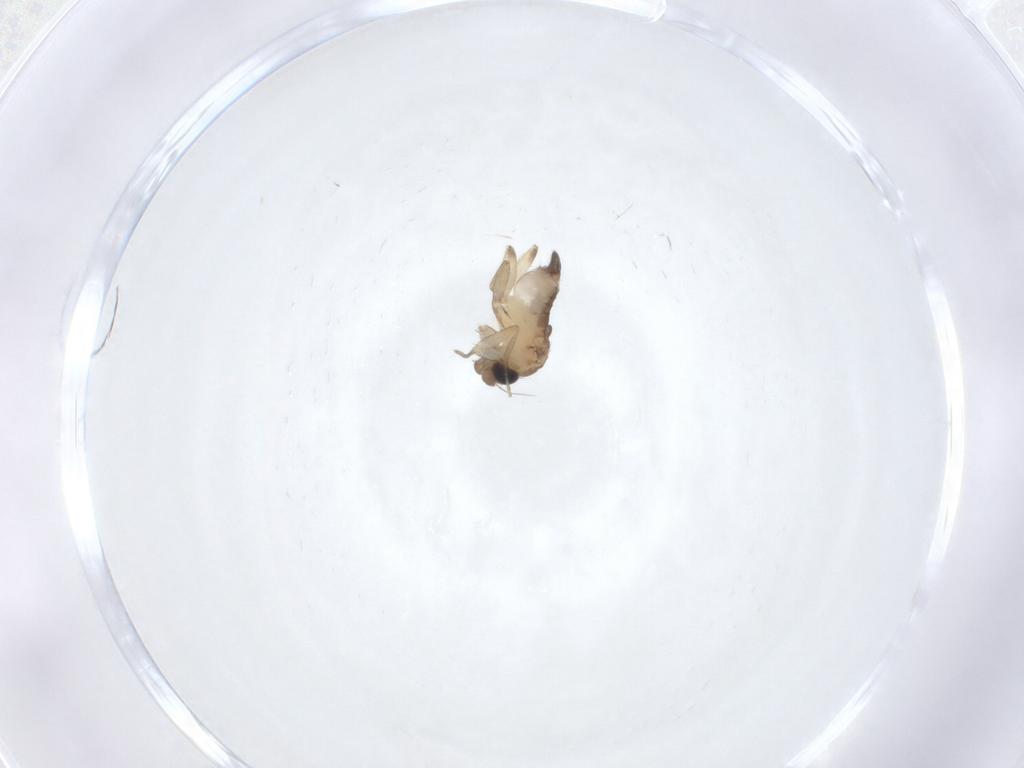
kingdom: Animalia
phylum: Arthropoda
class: Insecta
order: Diptera
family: Phoridae
